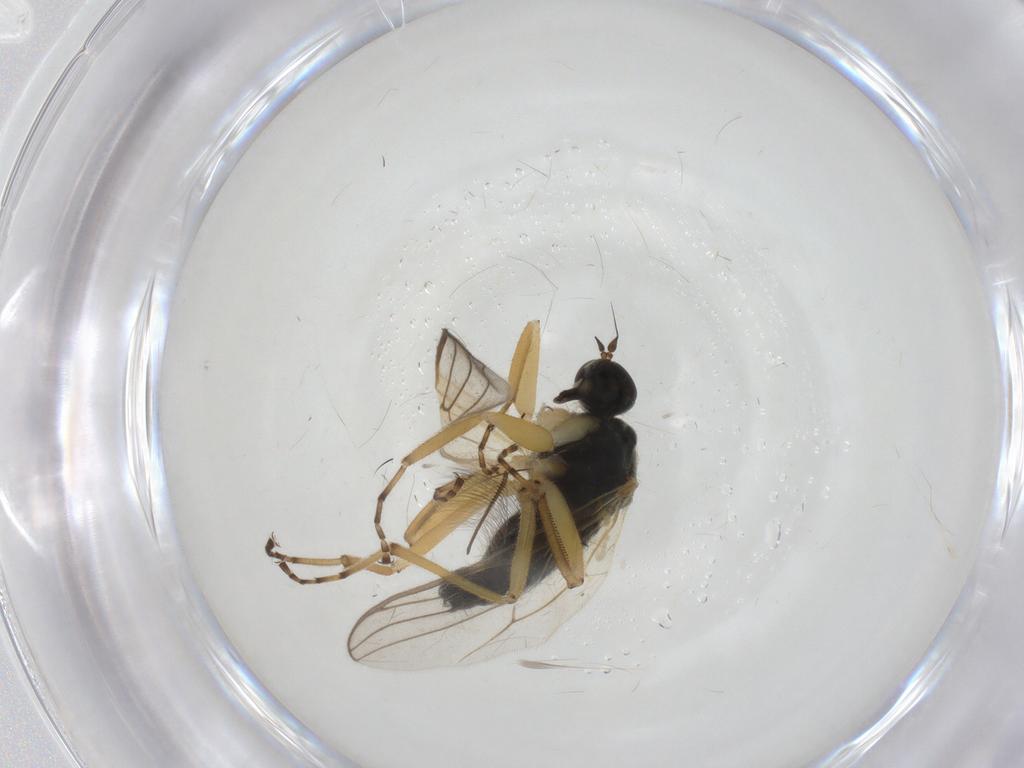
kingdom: Animalia
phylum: Arthropoda
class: Insecta
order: Diptera
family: Hybotidae
